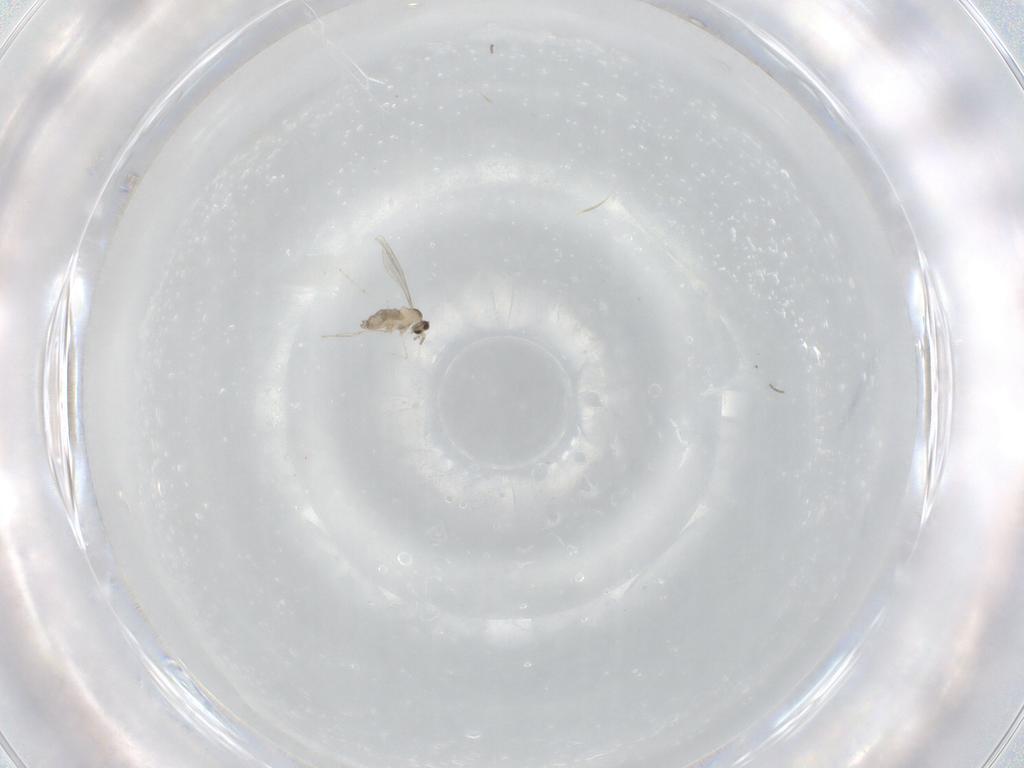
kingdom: Animalia
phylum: Arthropoda
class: Insecta
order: Diptera
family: Cecidomyiidae
